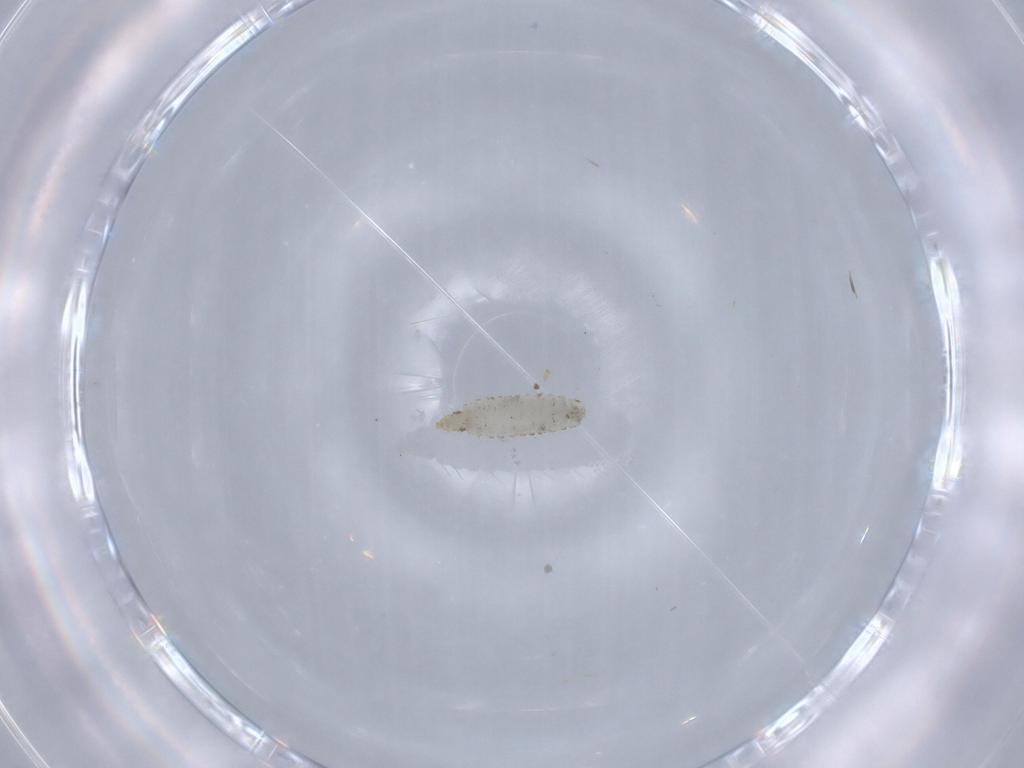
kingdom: Animalia
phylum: Arthropoda
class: Insecta
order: Diptera
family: Stratiomyidae
